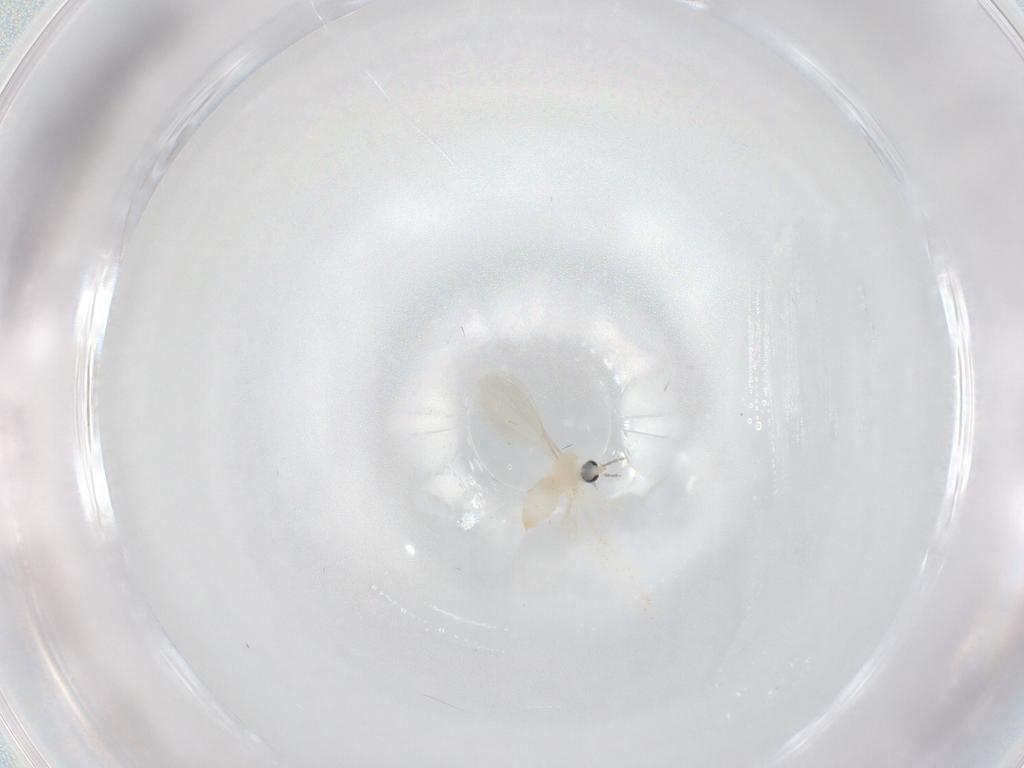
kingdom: Animalia
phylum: Arthropoda
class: Insecta
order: Diptera
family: Cecidomyiidae
